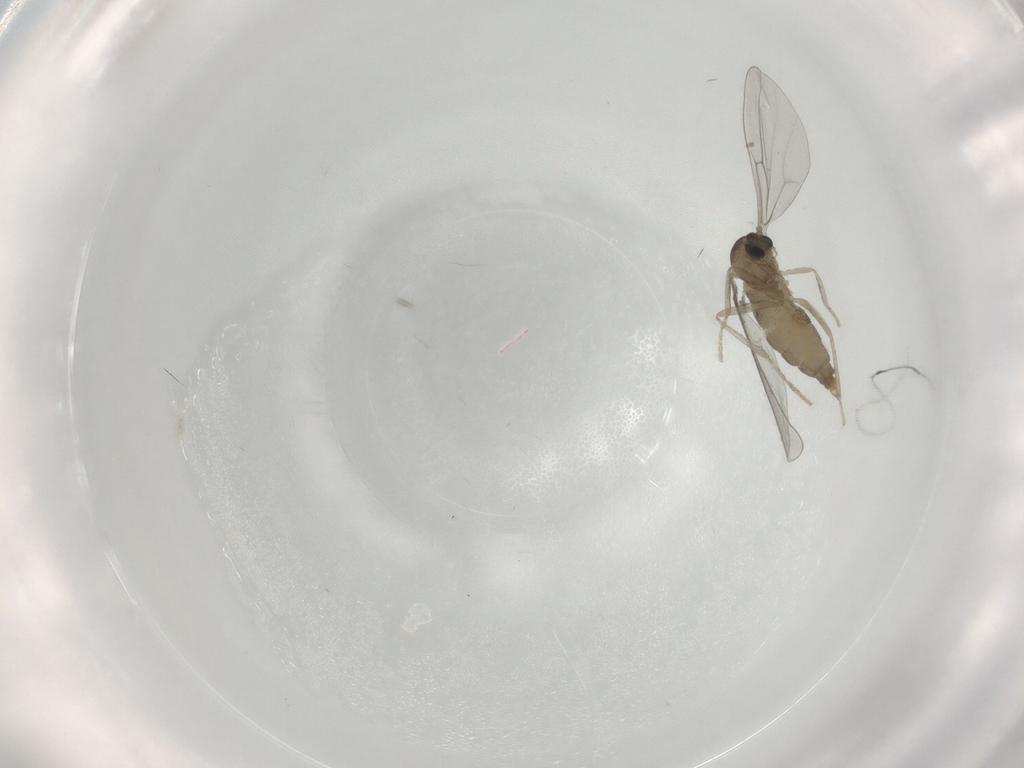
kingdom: Animalia
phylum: Arthropoda
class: Insecta
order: Diptera
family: Cecidomyiidae
